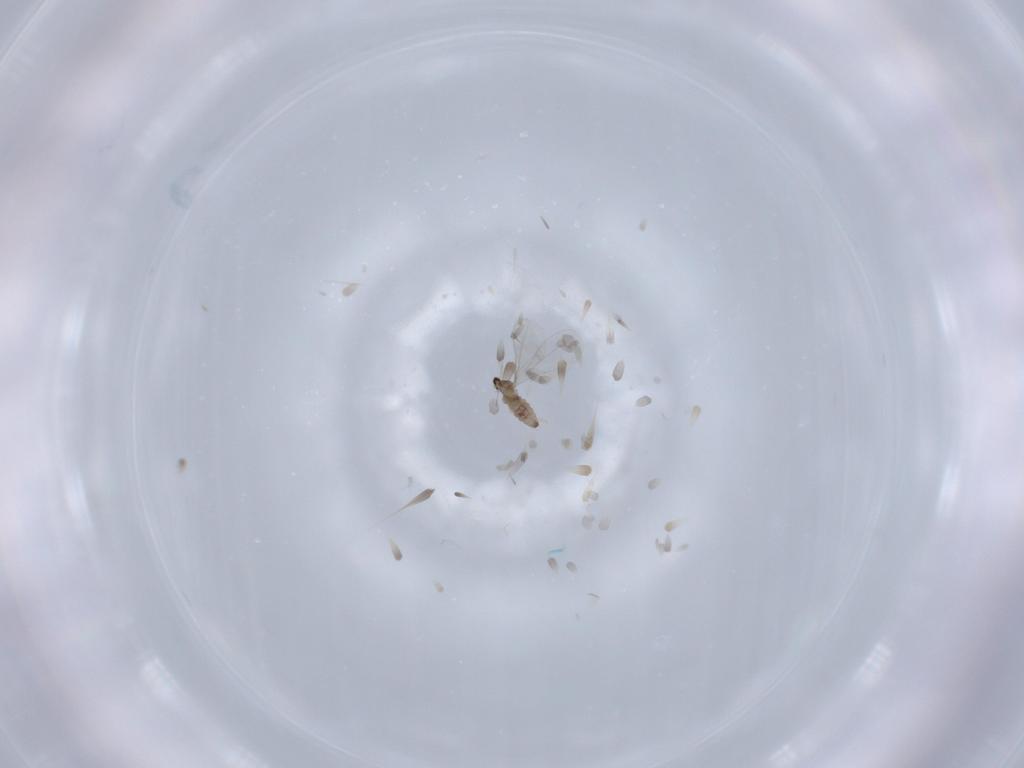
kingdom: Animalia
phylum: Arthropoda
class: Insecta
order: Diptera
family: Cecidomyiidae
